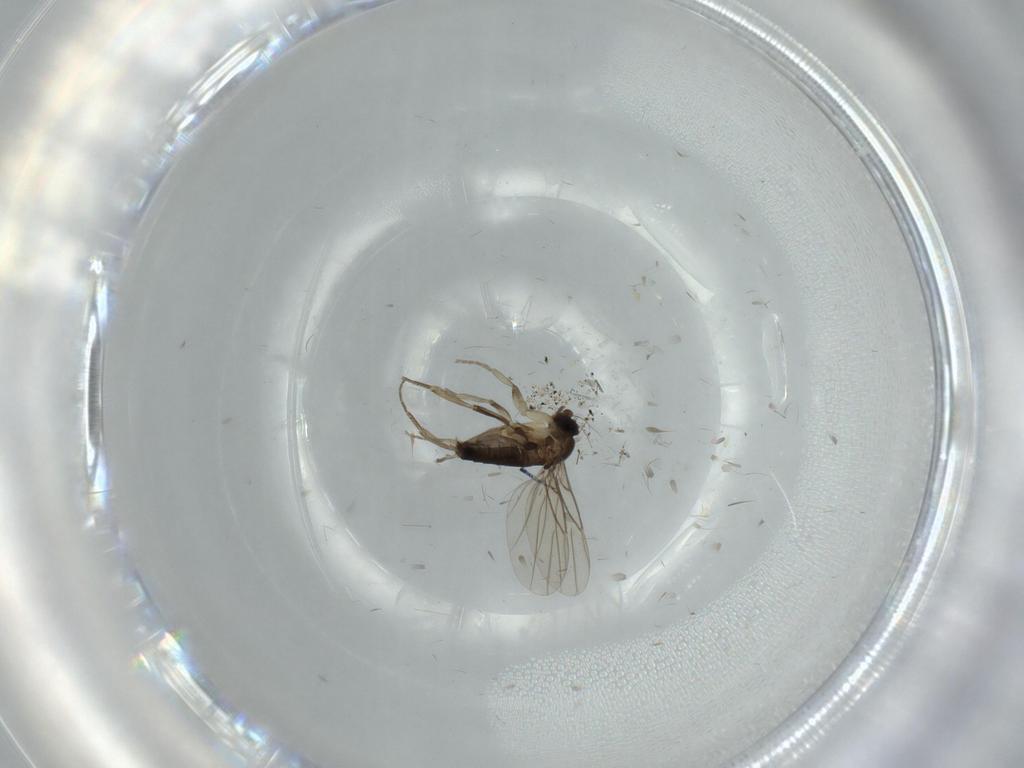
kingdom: Animalia
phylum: Arthropoda
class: Insecta
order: Diptera
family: Phoridae
